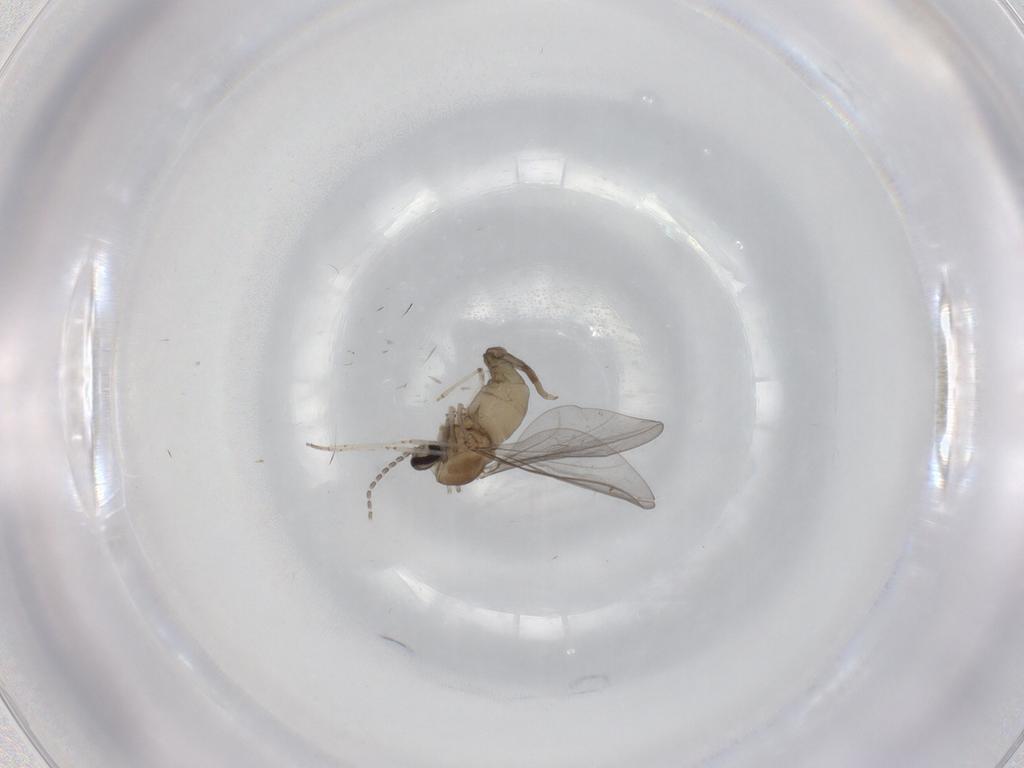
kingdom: Animalia
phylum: Arthropoda
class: Insecta
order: Diptera
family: Cecidomyiidae
